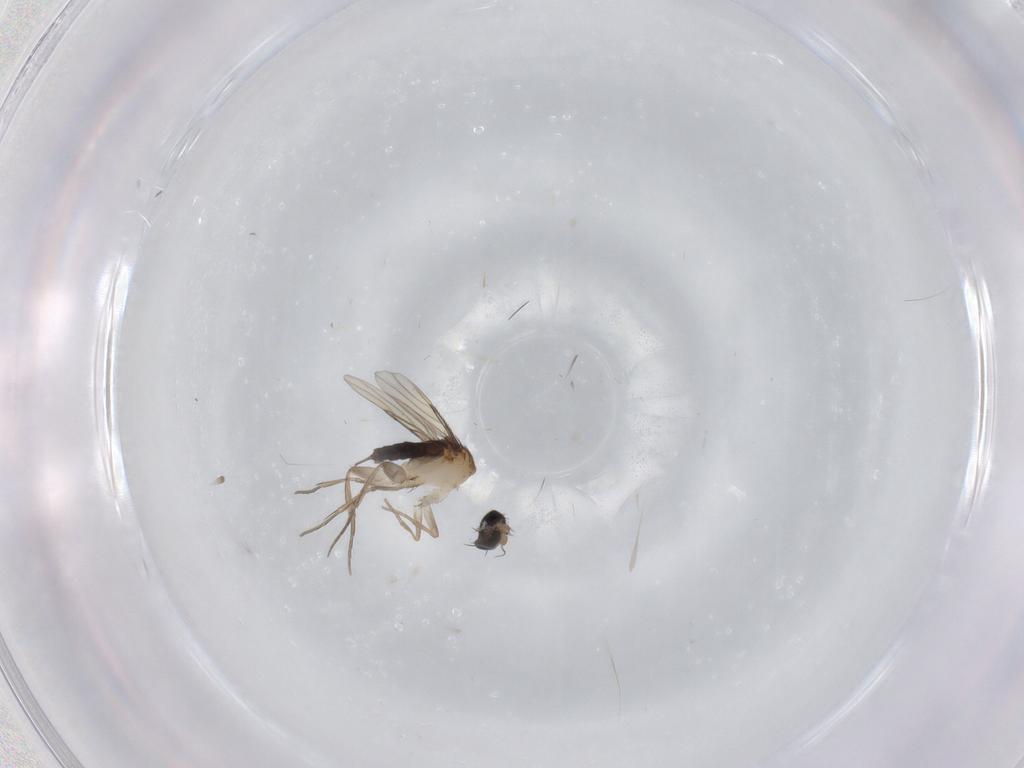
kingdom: Animalia
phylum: Arthropoda
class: Insecta
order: Diptera
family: Phoridae
